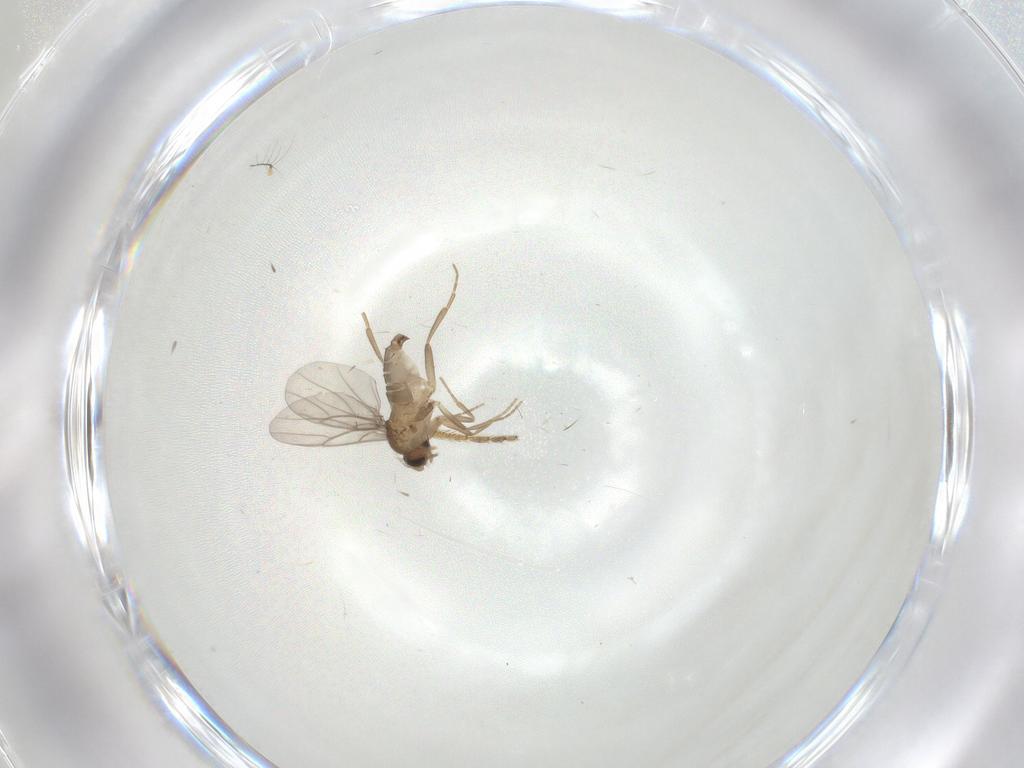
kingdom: Animalia
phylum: Arthropoda
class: Insecta
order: Diptera
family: Limoniidae
